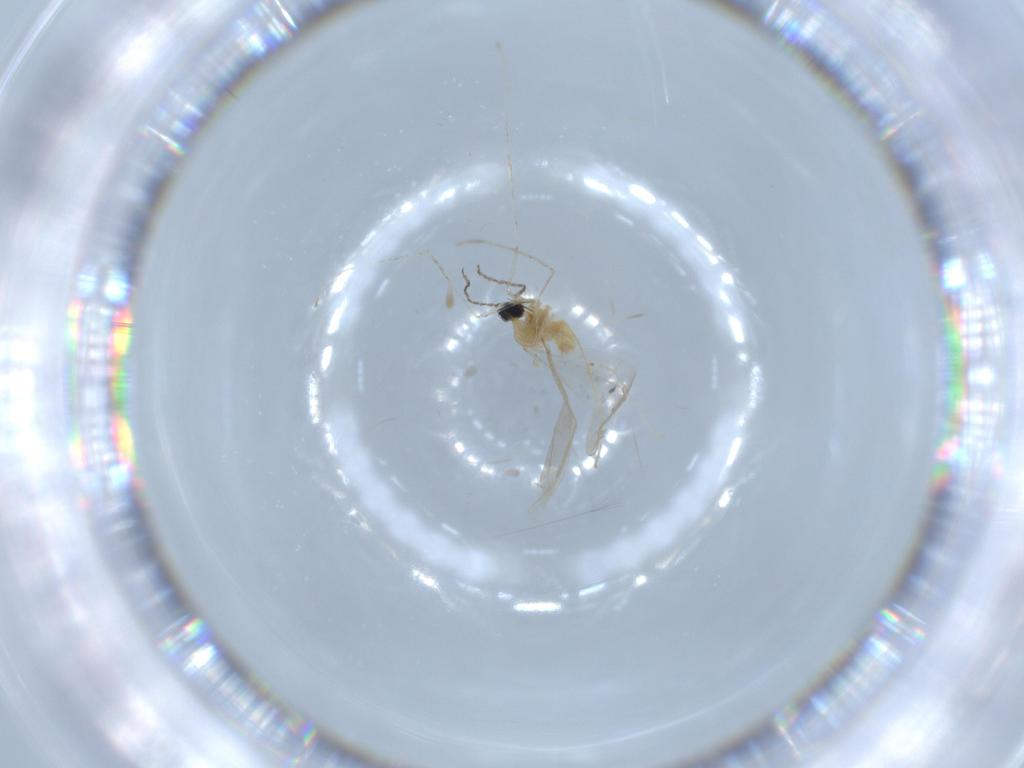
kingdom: Animalia
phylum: Arthropoda
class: Insecta
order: Diptera
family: Cecidomyiidae
